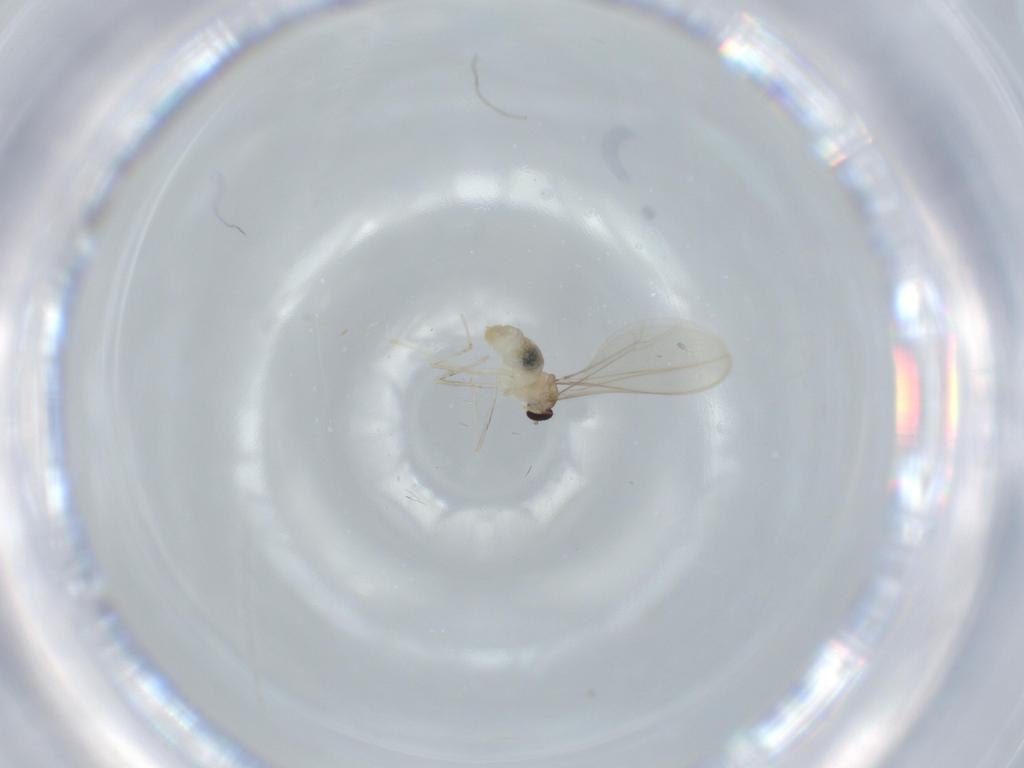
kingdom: Animalia
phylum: Arthropoda
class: Insecta
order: Diptera
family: Cecidomyiidae
